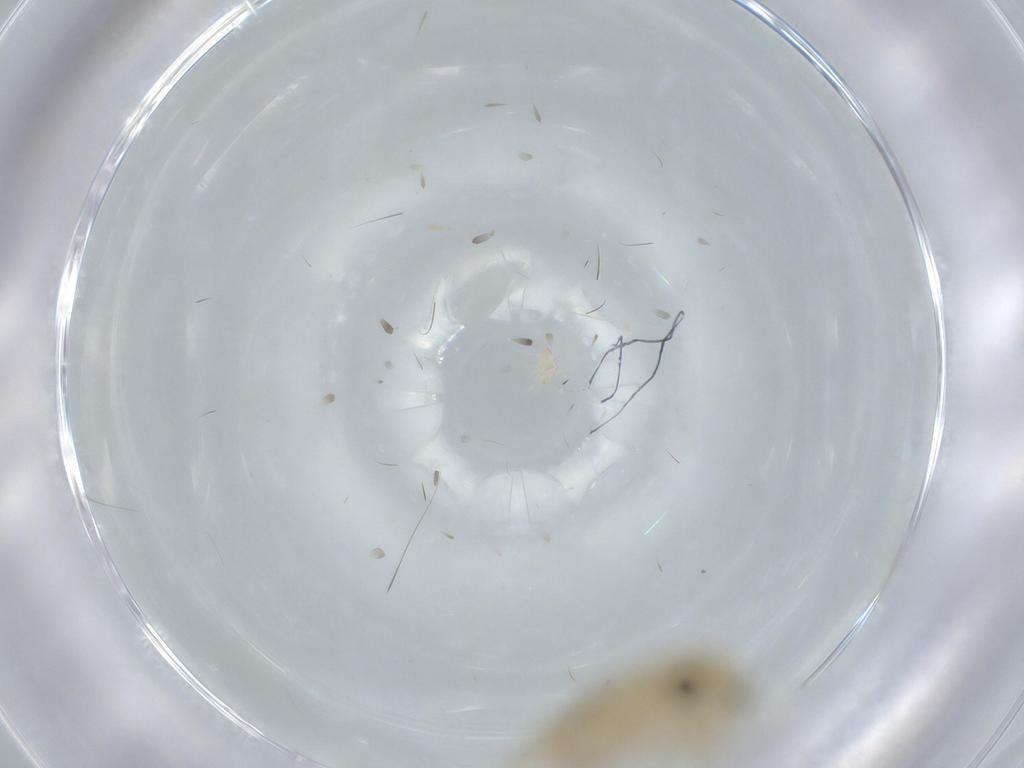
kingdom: Animalia
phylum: Arthropoda
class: Insecta
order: Psocodea
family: Caeciliusidae
